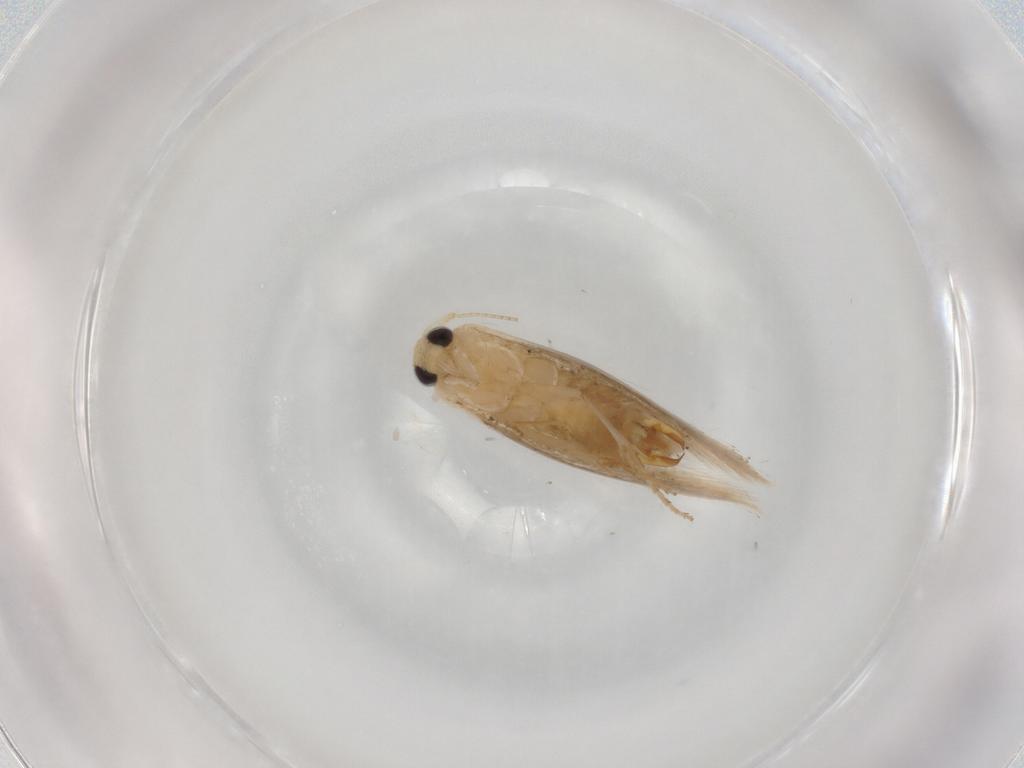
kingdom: Animalia
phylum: Arthropoda
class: Insecta
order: Lepidoptera
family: Noctuidae
